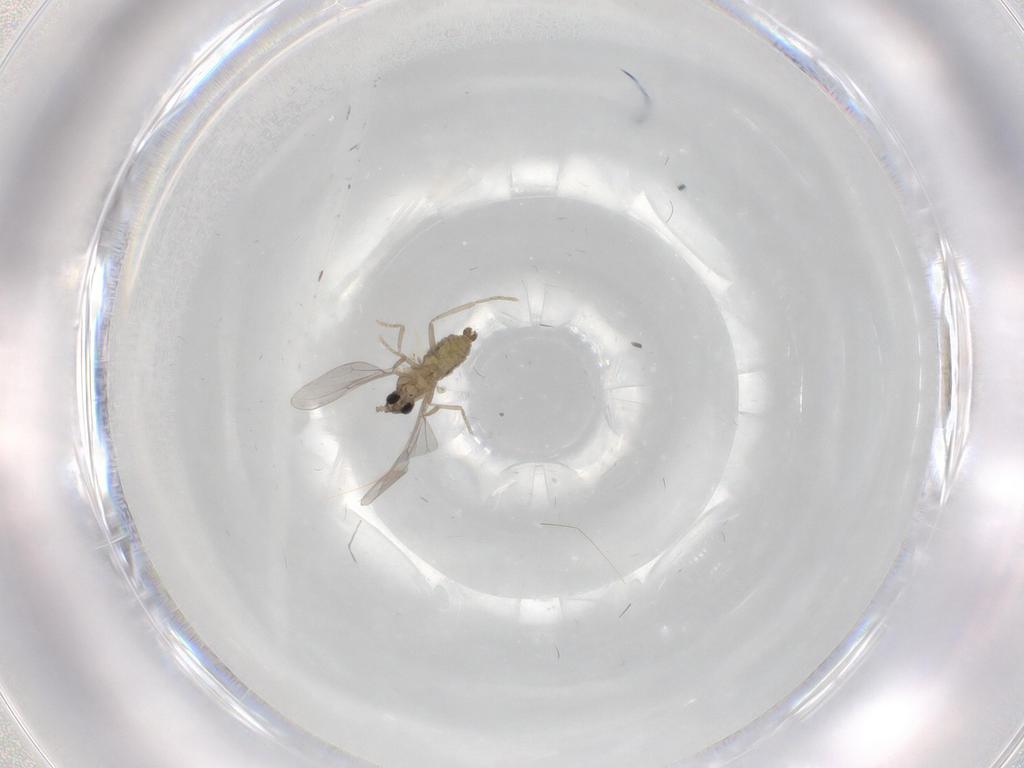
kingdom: Animalia
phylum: Arthropoda
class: Insecta
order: Diptera
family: Cecidomyiidae
